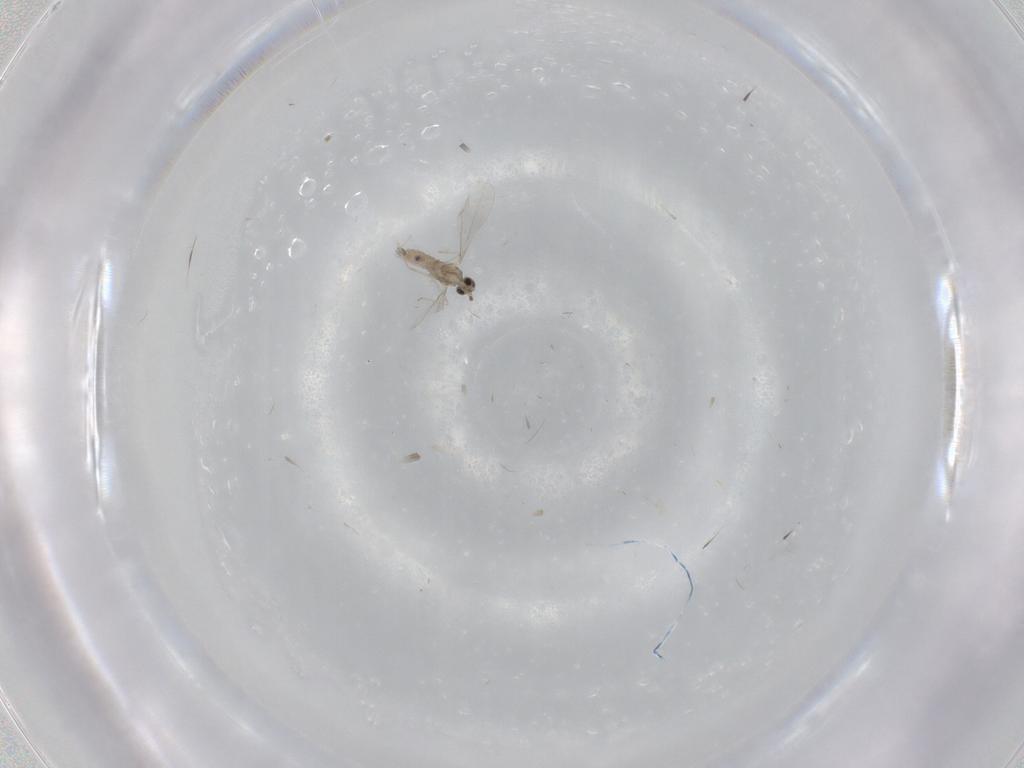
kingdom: Animalia
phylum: Arthropoda
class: Insecta
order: Diptera
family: Cecidomyiidae
